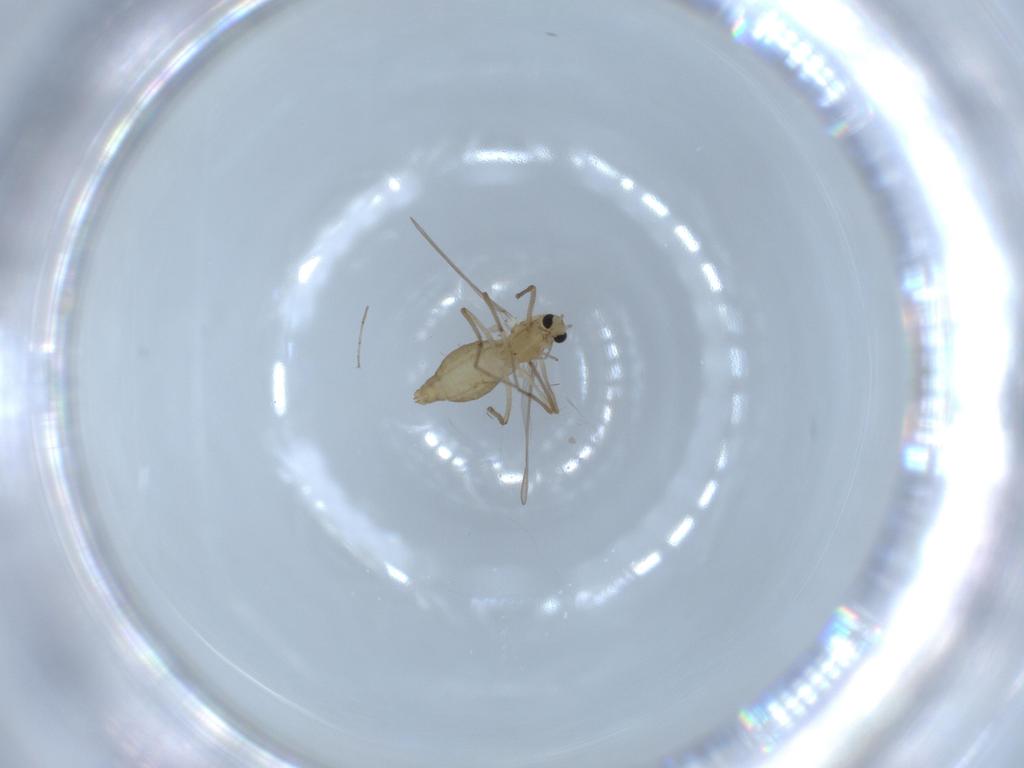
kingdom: Animalia
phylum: Arthropoda
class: Insecta
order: Diptera
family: Chironomidae
